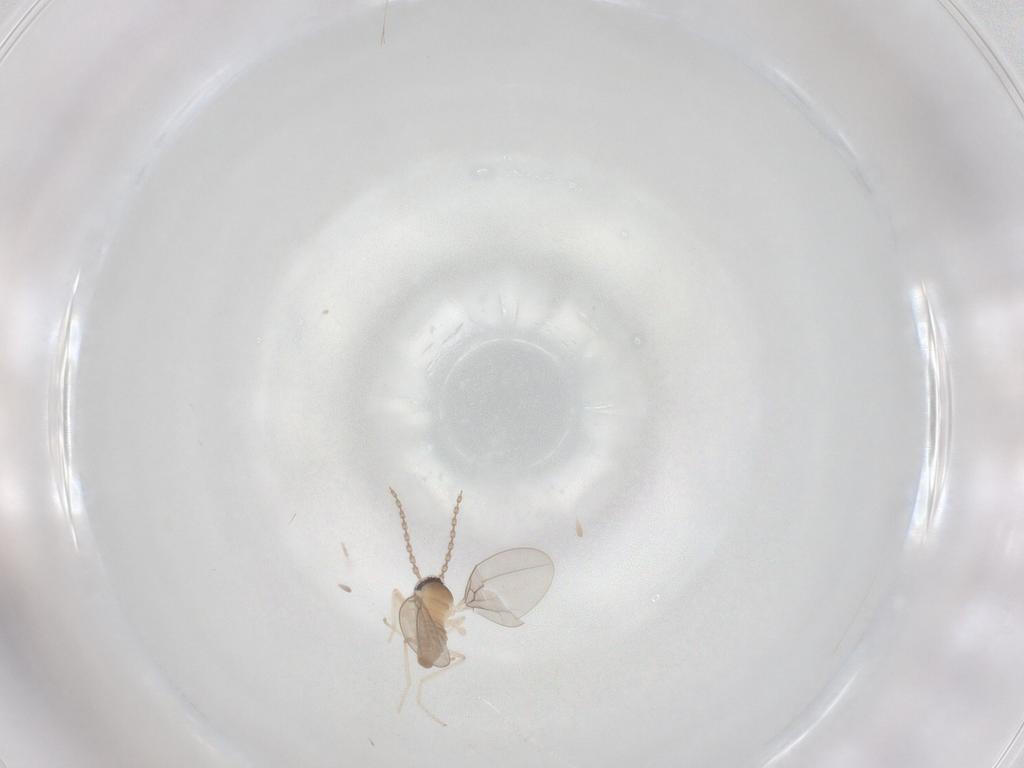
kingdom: Animalia
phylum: Arthropoda
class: Insecta
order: Diptera
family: Cecidomyiidae
